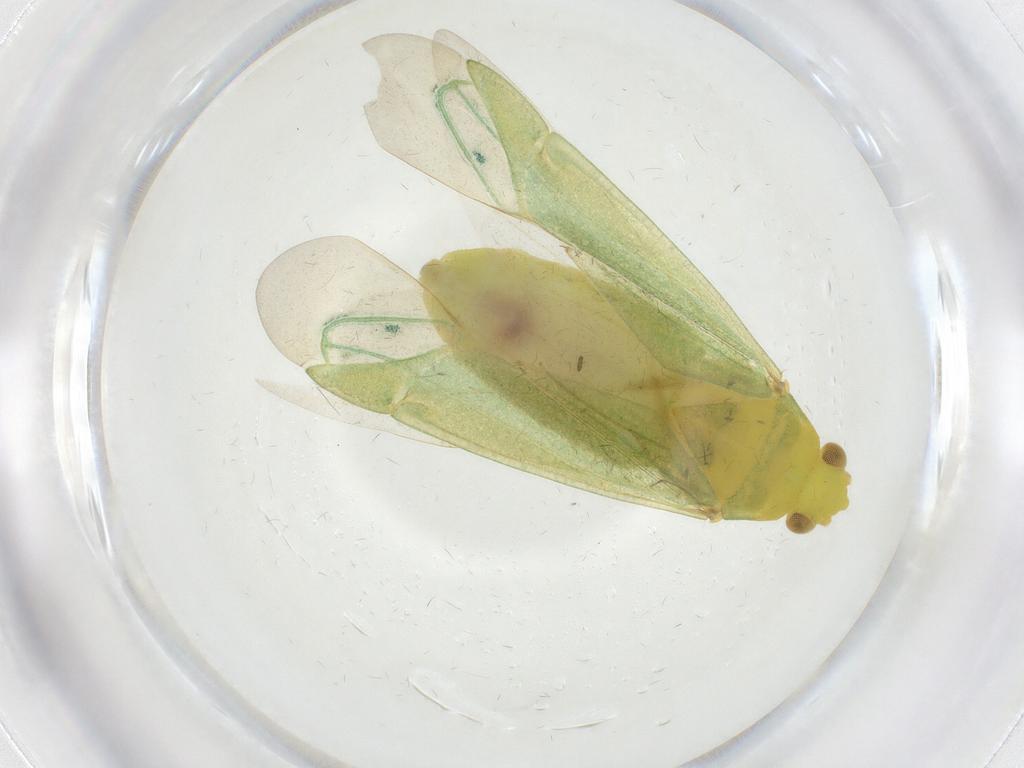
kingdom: Animalia
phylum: Arthropoda
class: Insecta
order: Hemiptera
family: Miridae
